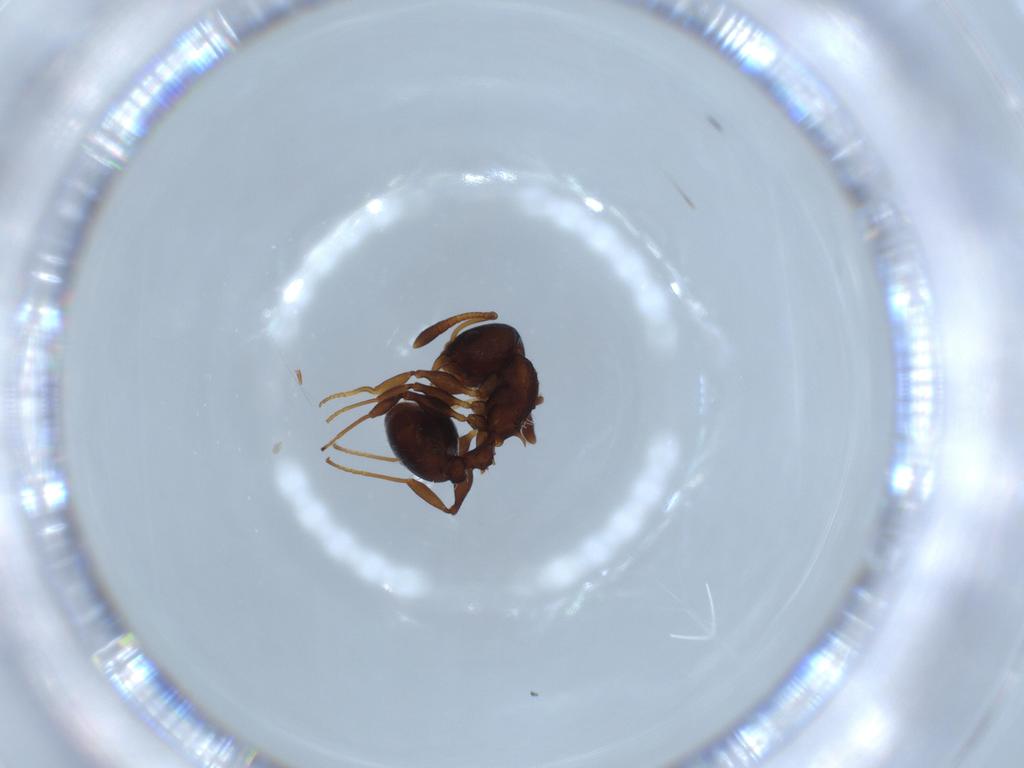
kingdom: Animalia
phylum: Arthropoda
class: Insecta
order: Hymenoptera
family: Formicidae
